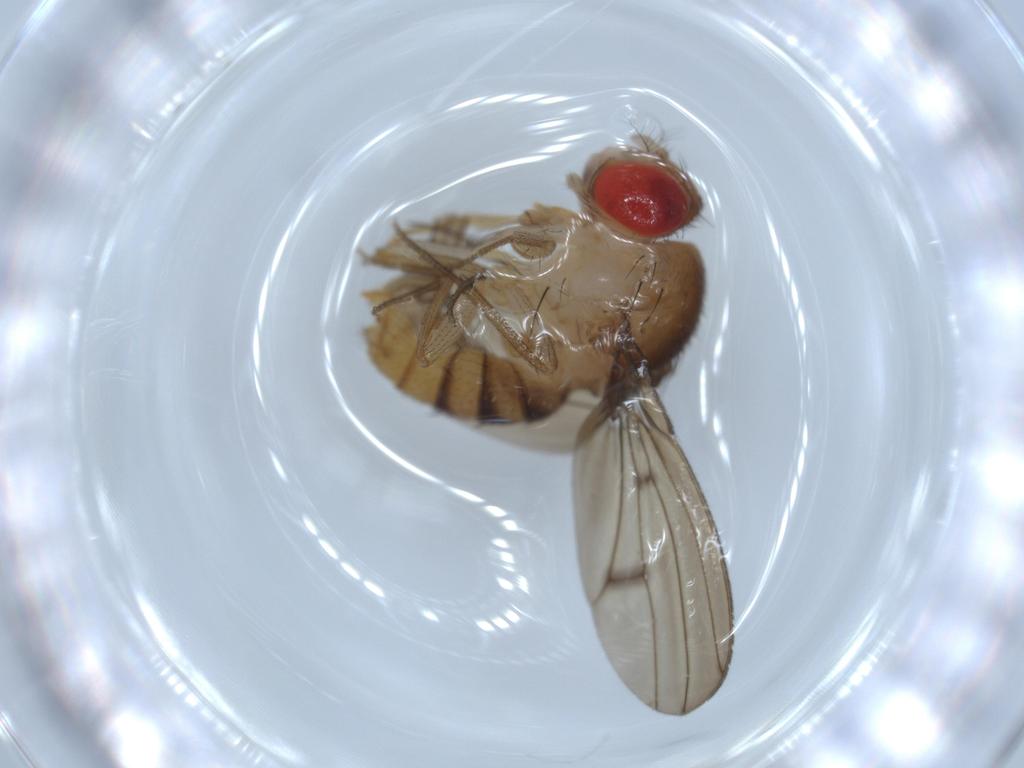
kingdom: Animalia
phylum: Arthropoda
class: Insecta
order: Diptera
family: Drosophilidae
